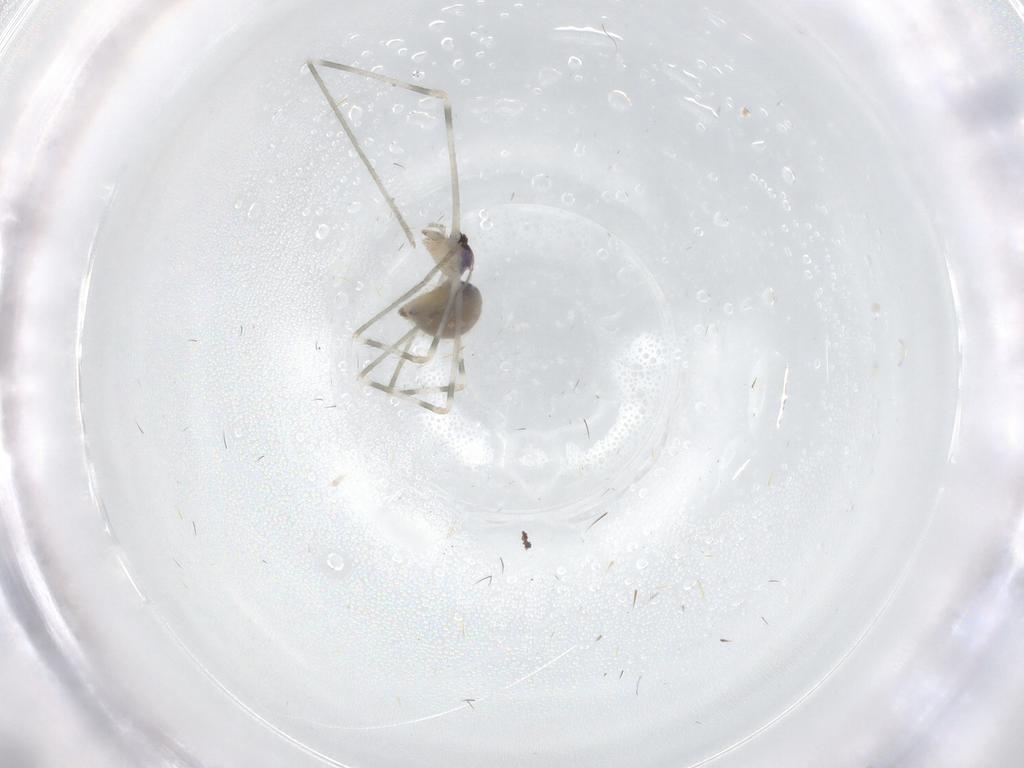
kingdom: Animalia
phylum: Arthropoda
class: Arachnida
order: Araneae
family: Pholcidae
